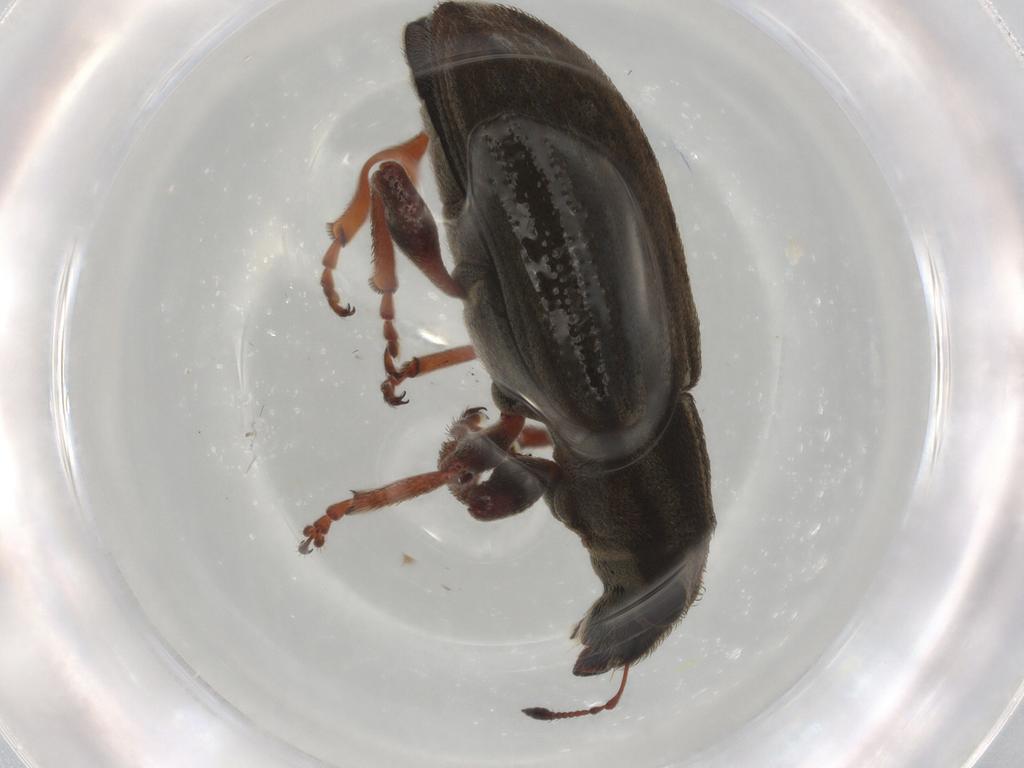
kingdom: Animalia
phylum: Arthropoda
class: Insecta
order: Coleoptera
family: Curculionidae
